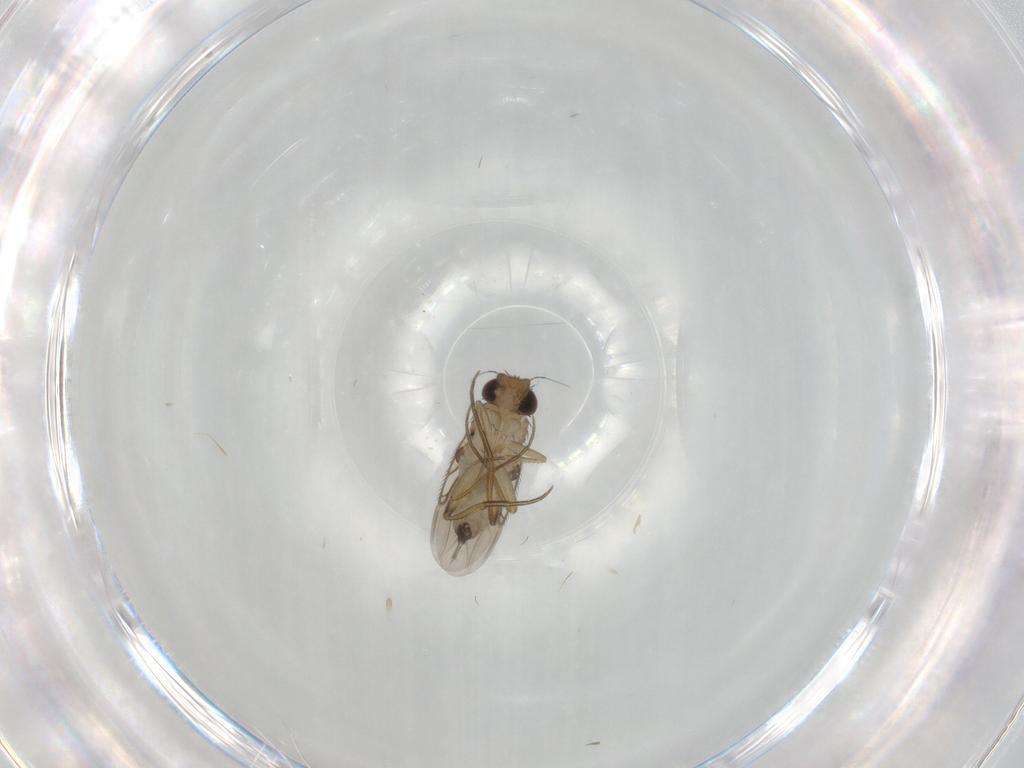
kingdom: Animalia
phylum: Arthropoda
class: Insecta
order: Diptera
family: Phoridae
